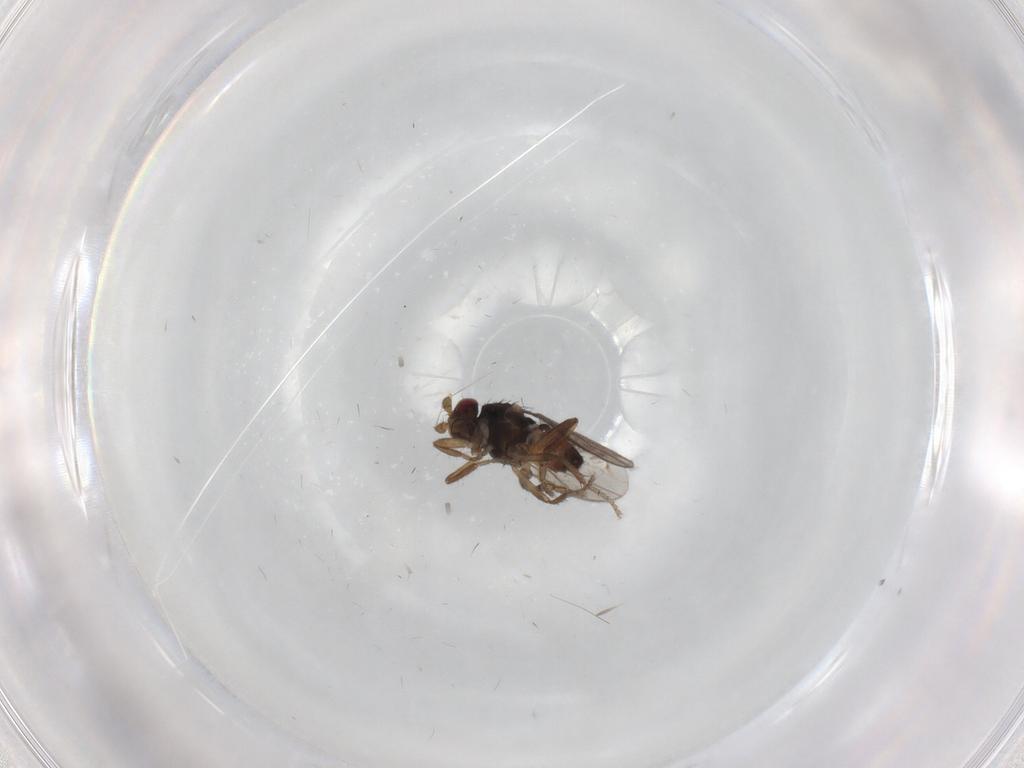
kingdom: Animalia
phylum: Arthropoda
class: Insecta
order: Diptera
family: Sphaeroceridae
